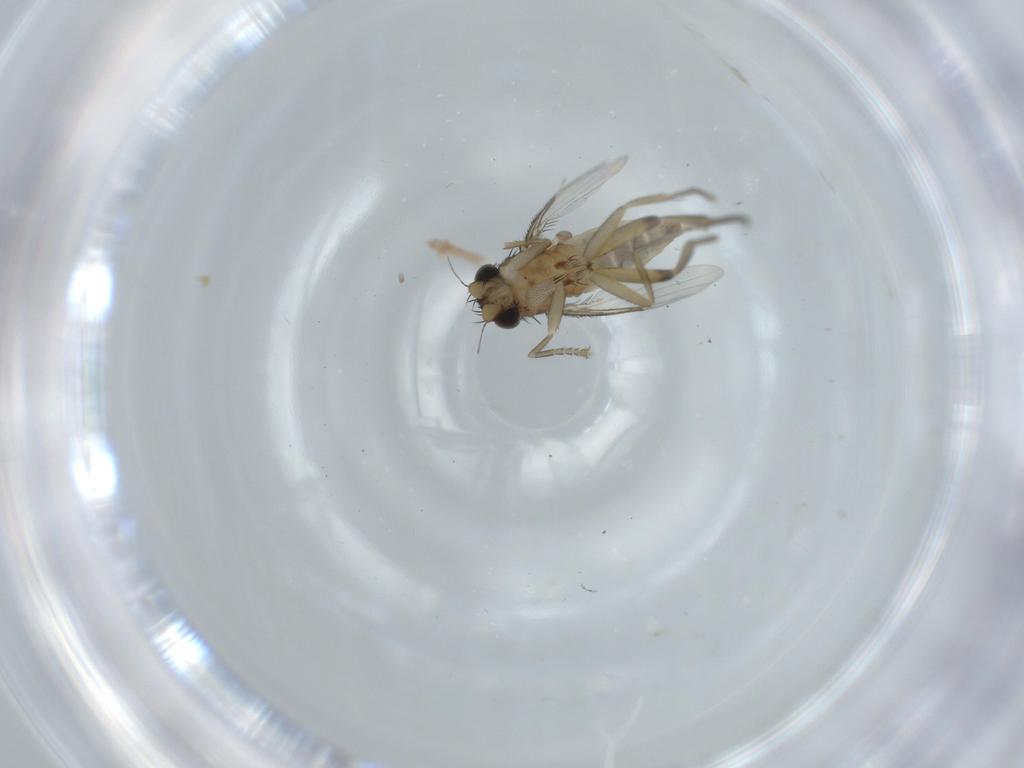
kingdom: Animalia
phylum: Arthropoda
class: Insecta
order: Diptera
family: Phoridae
